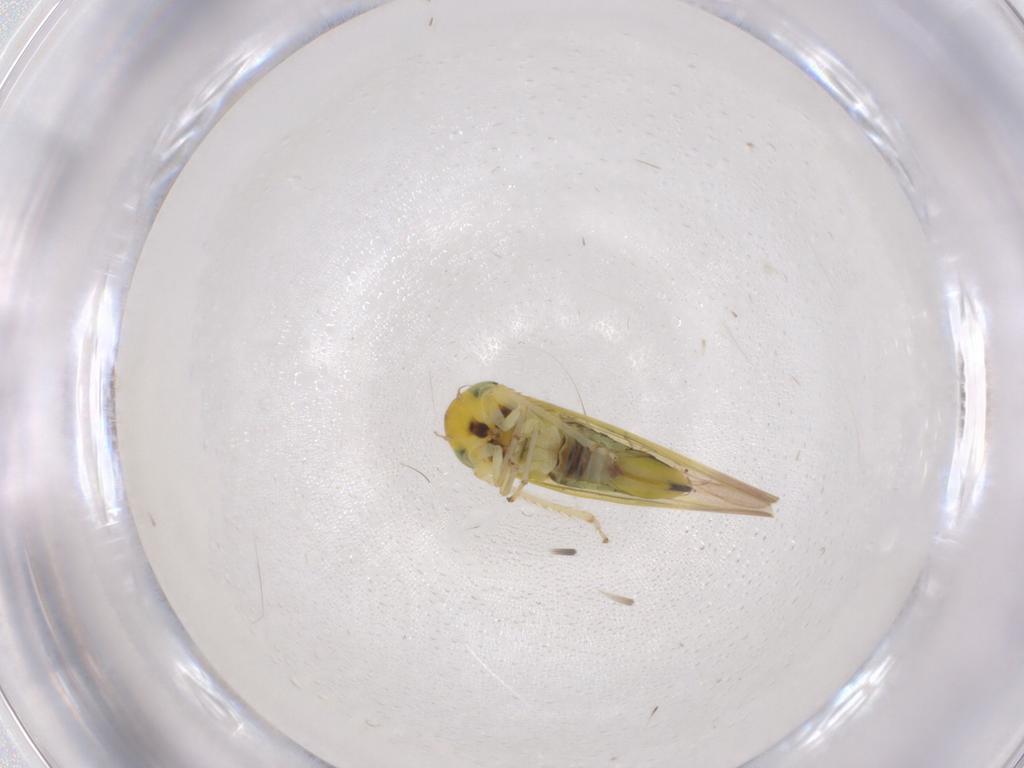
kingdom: Animalia
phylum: Arthropoda
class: Insecta
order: Hemiptera
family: Cicadellidae
